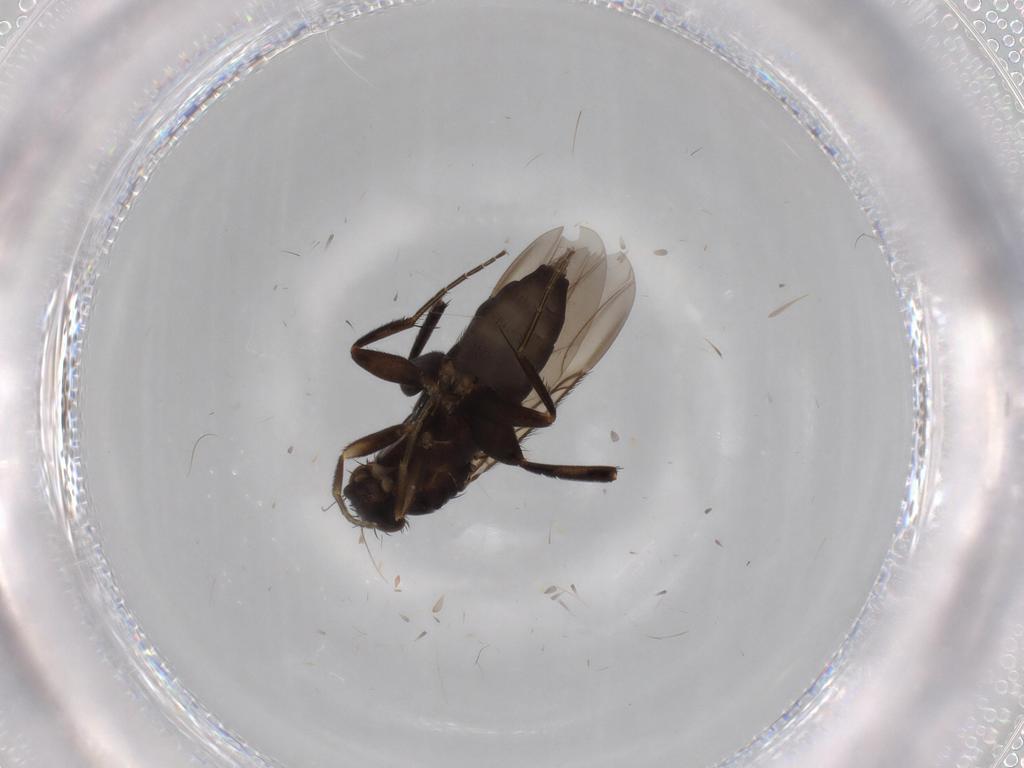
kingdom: Animalia
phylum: Arthropoda
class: Insecta
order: Diptera
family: Phoridae
